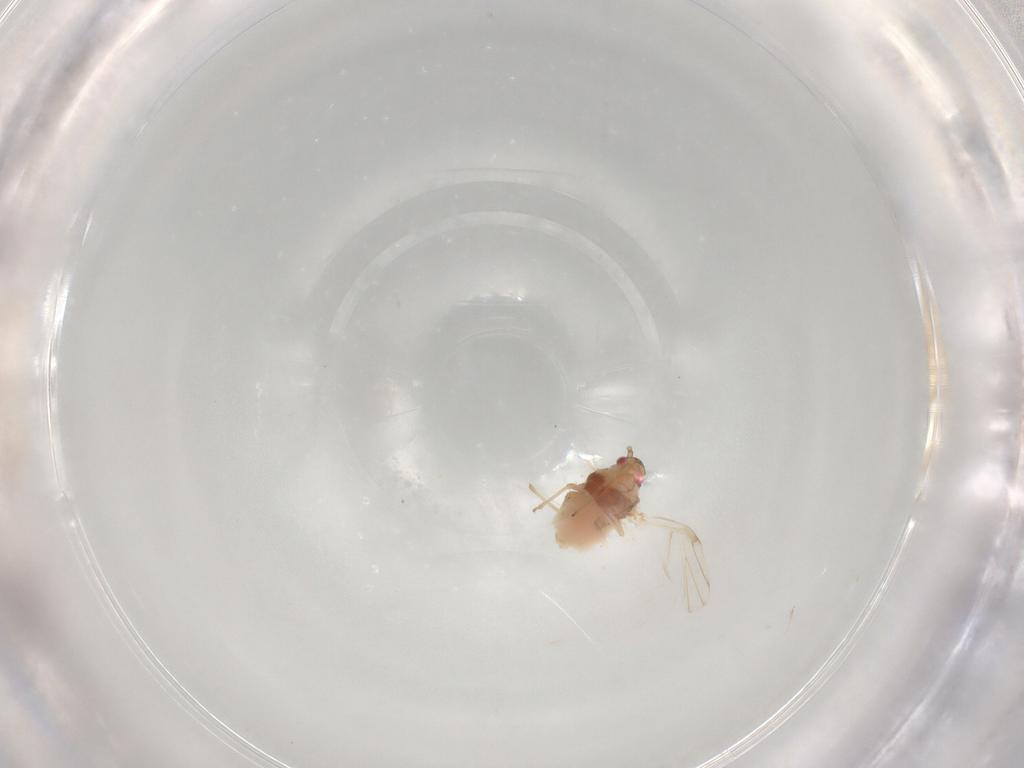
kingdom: Animalia
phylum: Arthropoda
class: Insecta
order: Hemiptera
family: Aphididae
